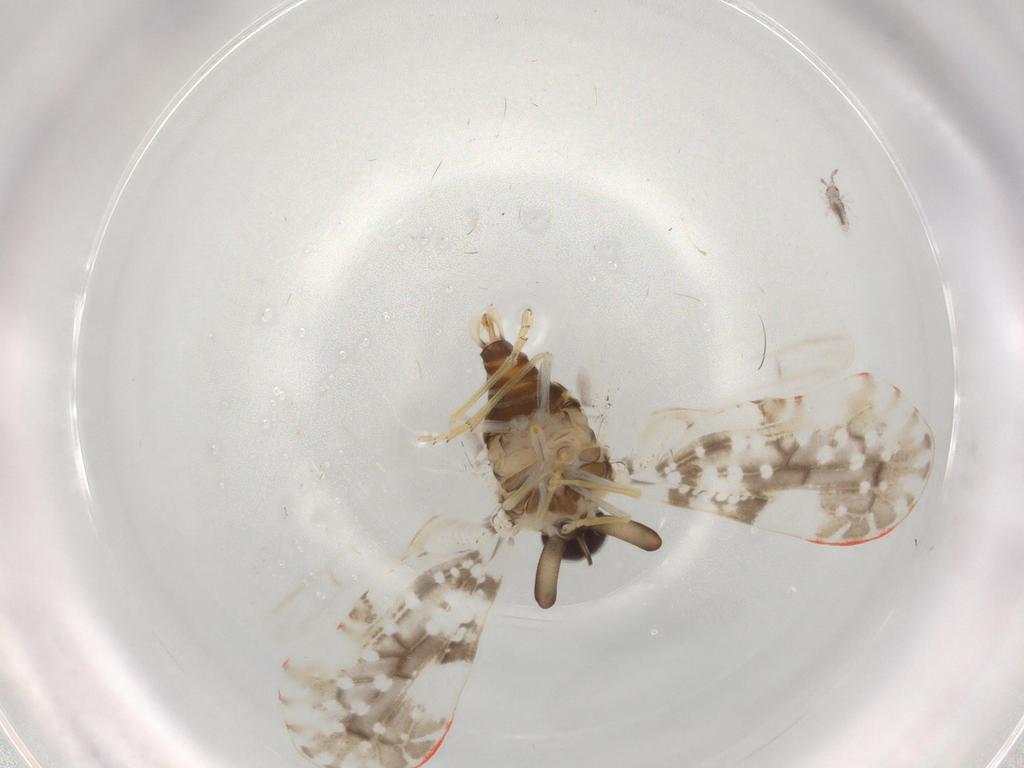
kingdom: Animalia
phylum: Arthropoda
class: Insecta
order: Hemiptera
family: Derbidae
